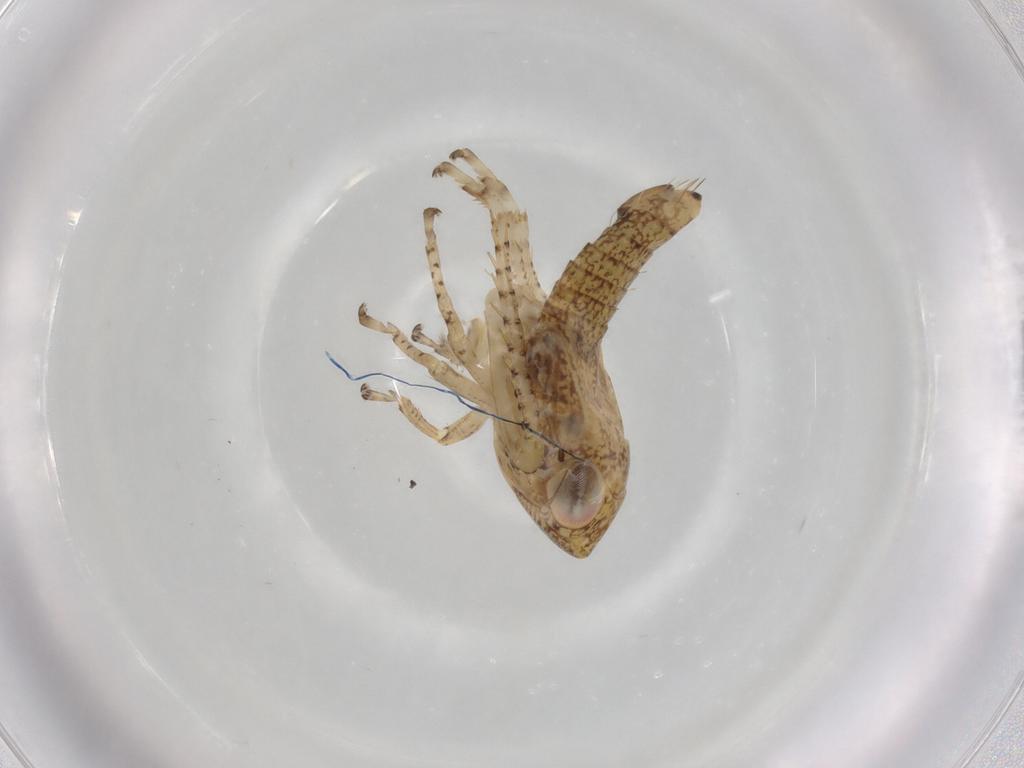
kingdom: Animalia
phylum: Arthropoda
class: Insecta
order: Hemiptera
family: Cicadellidae
